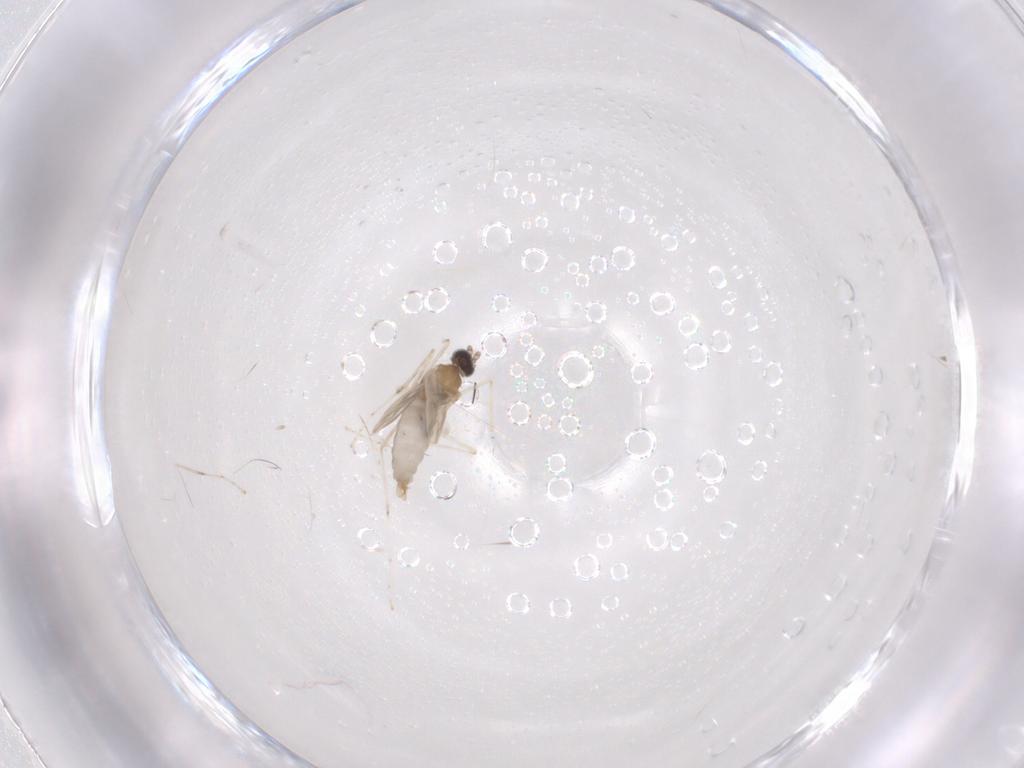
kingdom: Animalia
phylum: Arthropoda
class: Insecta
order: Diptera
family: Cecidomyiidae
